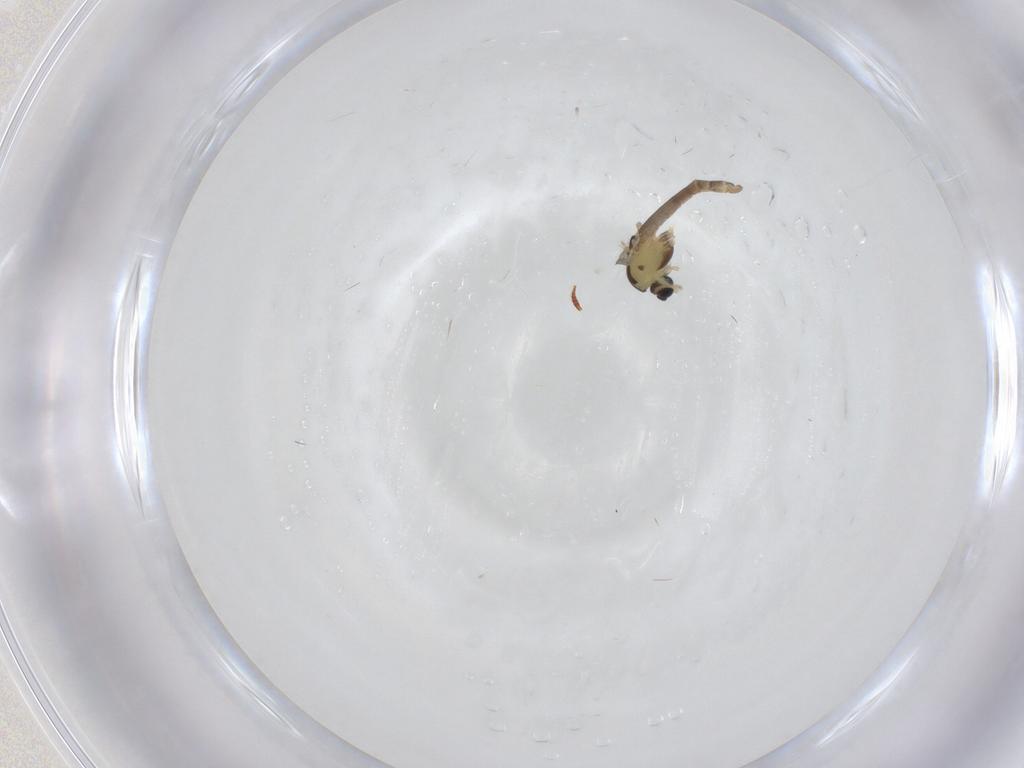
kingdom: Animalia
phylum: Arthropoda
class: Insecta
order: Diptera
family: Chironomidae
